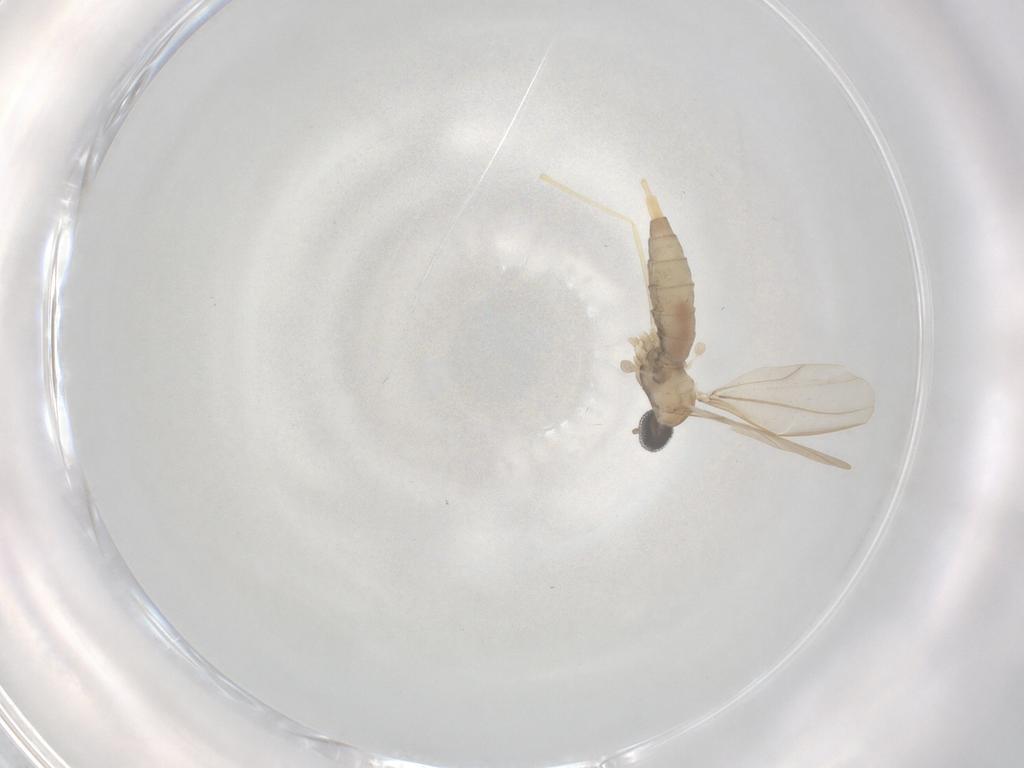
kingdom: Animalia
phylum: Arthropoda
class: Insecta
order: Diptera
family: Cecidomyiidae
